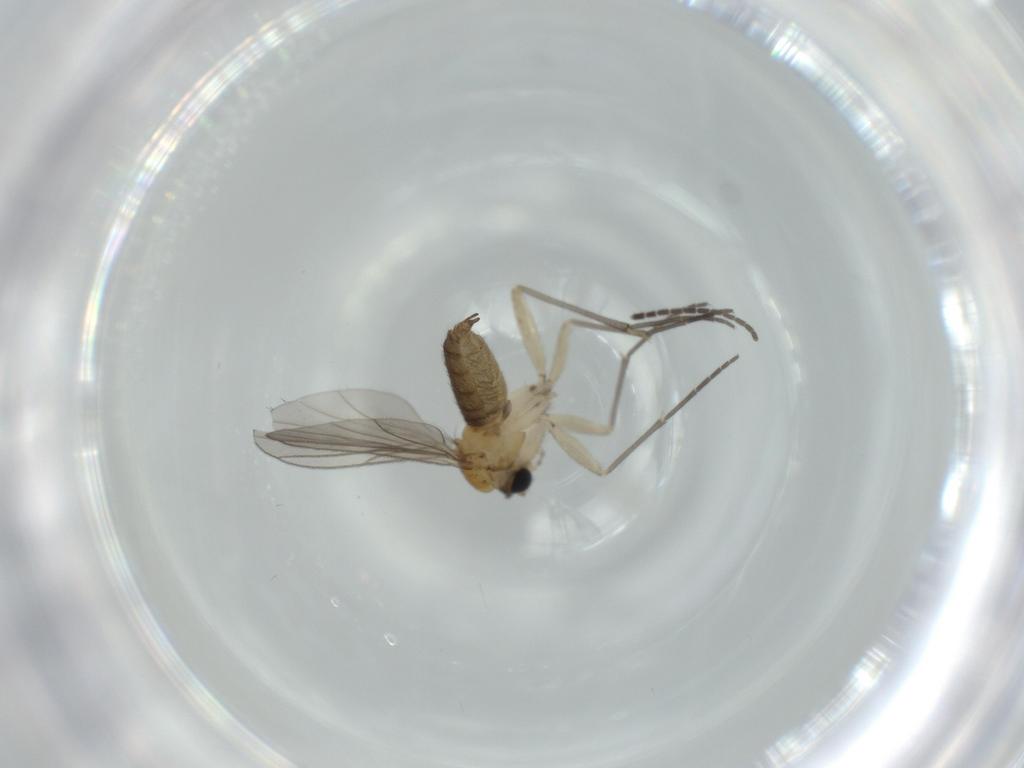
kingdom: Animalia
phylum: Arthropoda
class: Insecta
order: Diptera
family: Sciaridae
